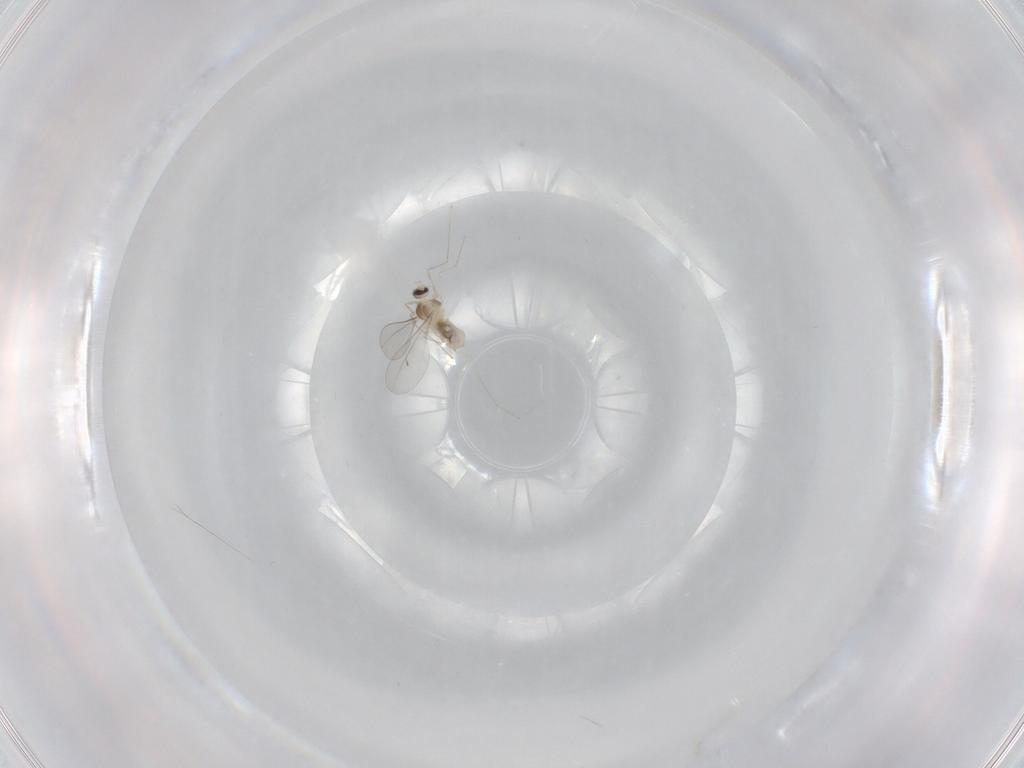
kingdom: Animalia
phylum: Arthropoda
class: Insecta
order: Diptera
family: Cecidomyiidae
